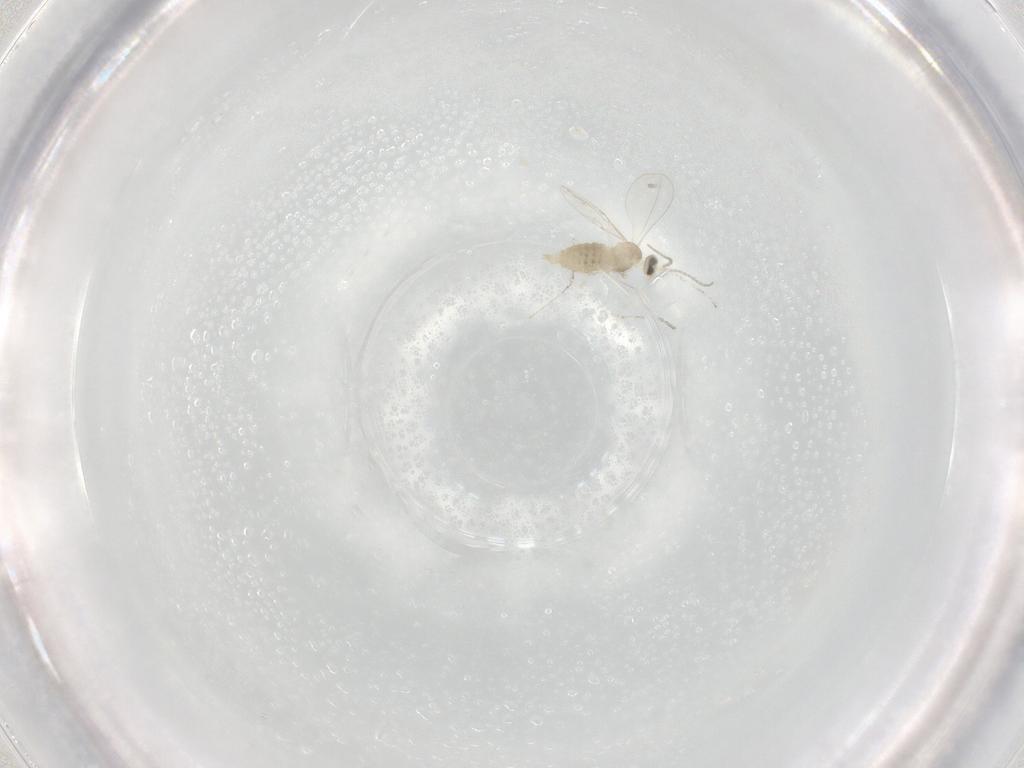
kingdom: Animalia
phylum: Arthropoda
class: Insecta
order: Diptera
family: Cecidomyiidae
